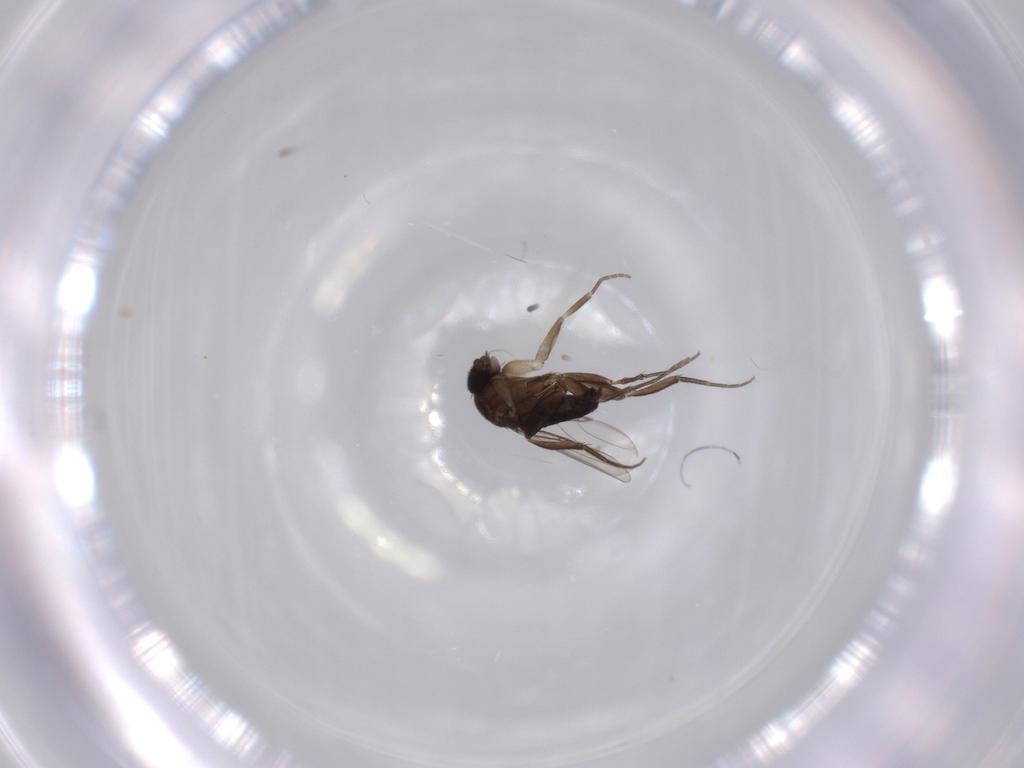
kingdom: Animalia
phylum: Arthropoda
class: Insecta
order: Diptera
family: Phoridae
